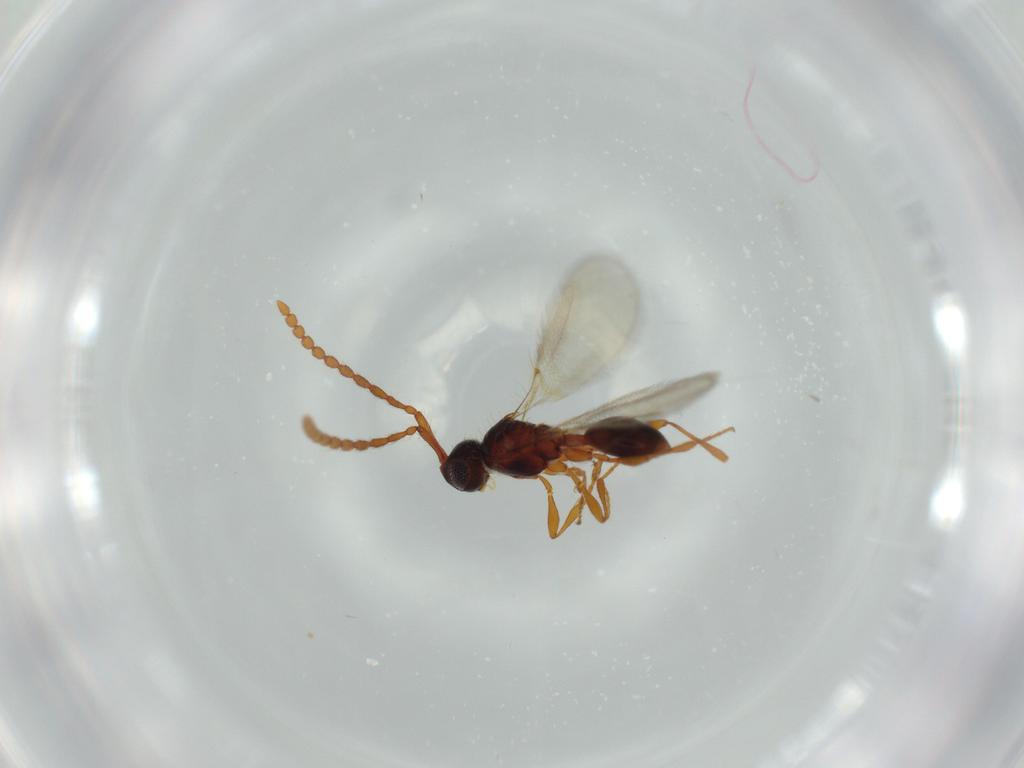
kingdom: Animalia
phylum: Arthropoda
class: Insecta
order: Hymenoptera
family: Diapriidae
